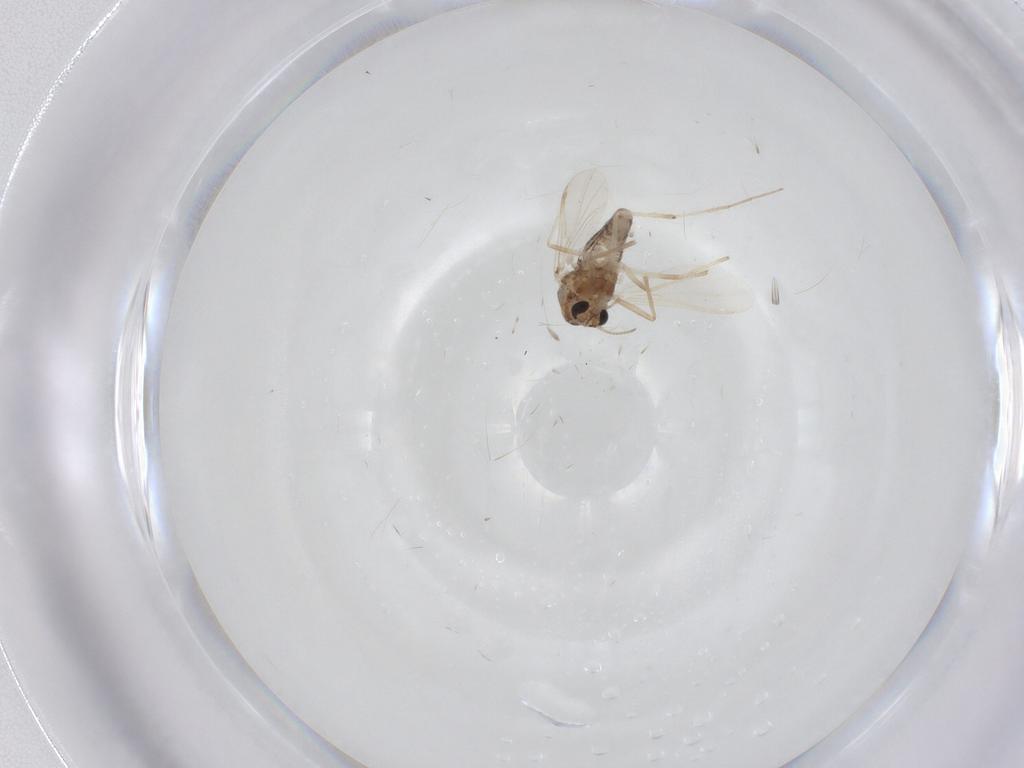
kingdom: Animalia
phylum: Arthropoda
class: Insecta
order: Diptera
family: Chironomidae
